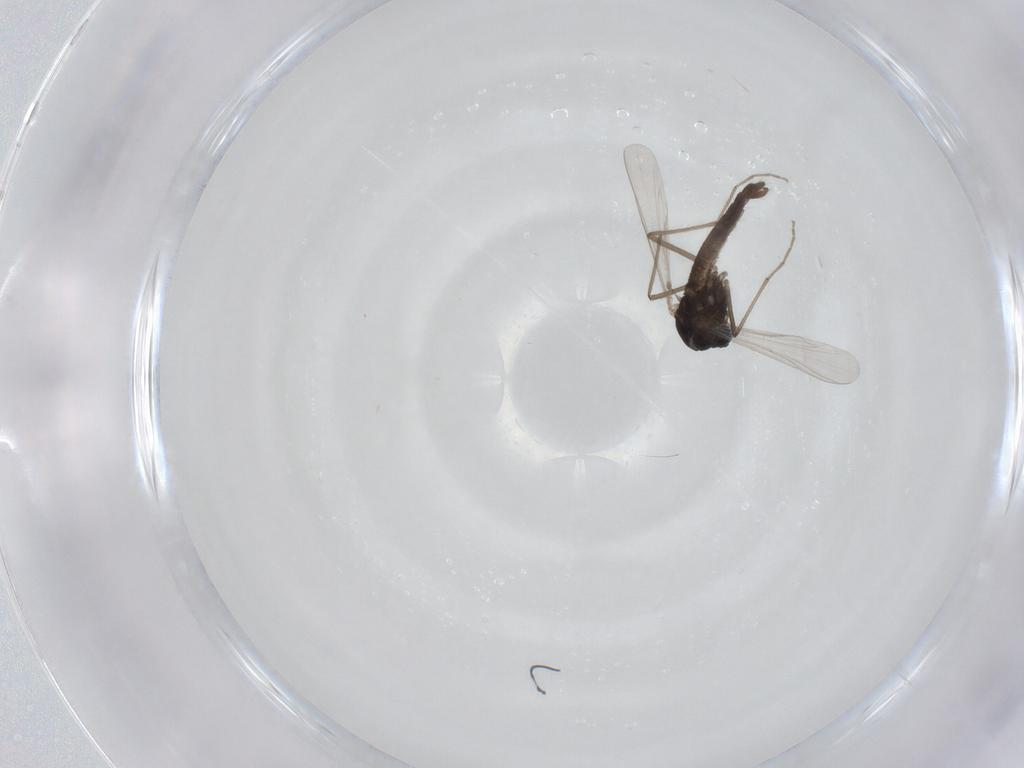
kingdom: Animalia
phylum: Arthropoda
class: Insecta
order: Diptera
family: Chironomidae
